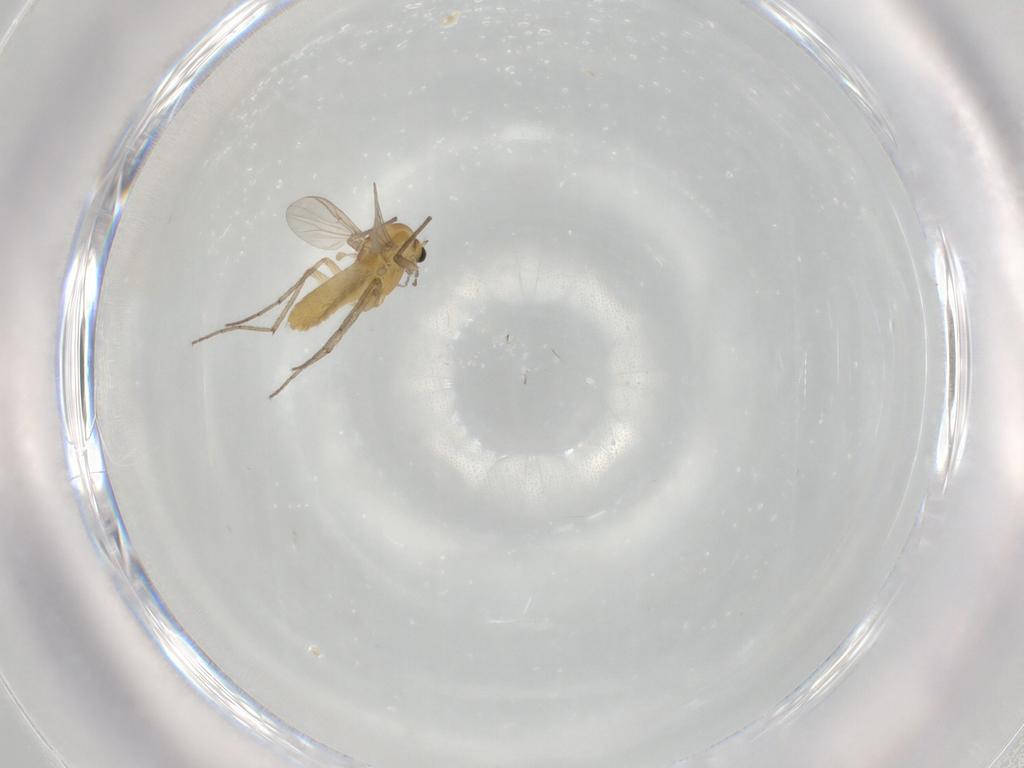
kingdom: Animalia
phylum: Arthropoda
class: Insecta
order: Diptera
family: Chironomidae
